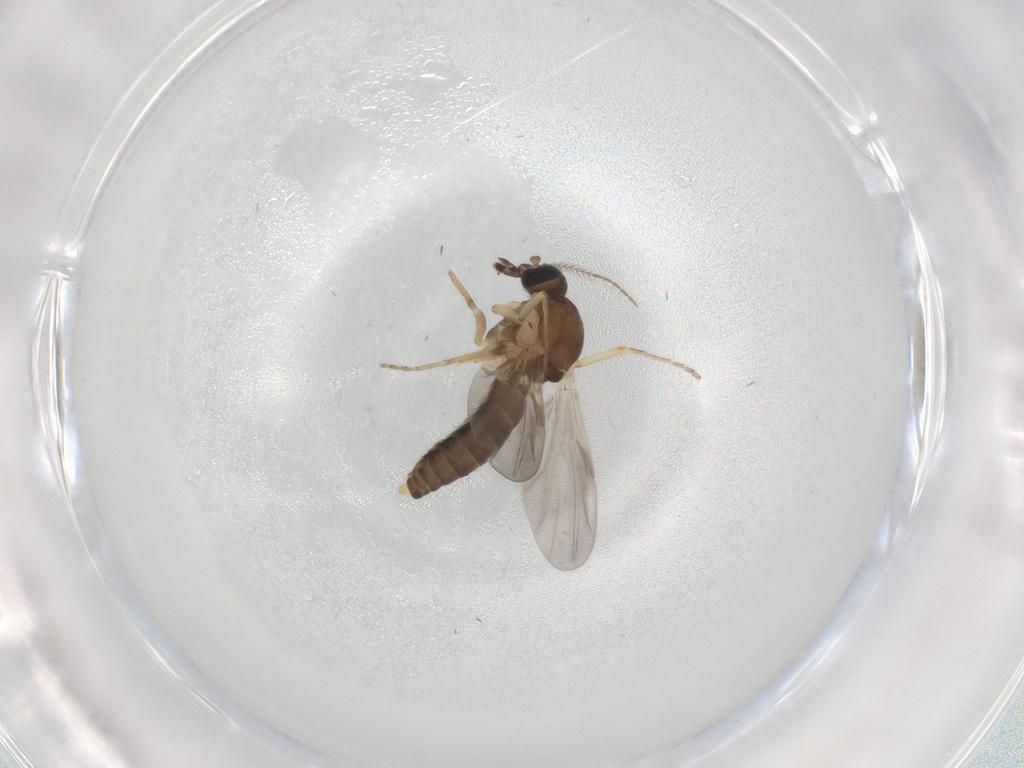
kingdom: Animalia
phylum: Arthropoda
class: Insecta
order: Diptera
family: Ceratopogonidae
